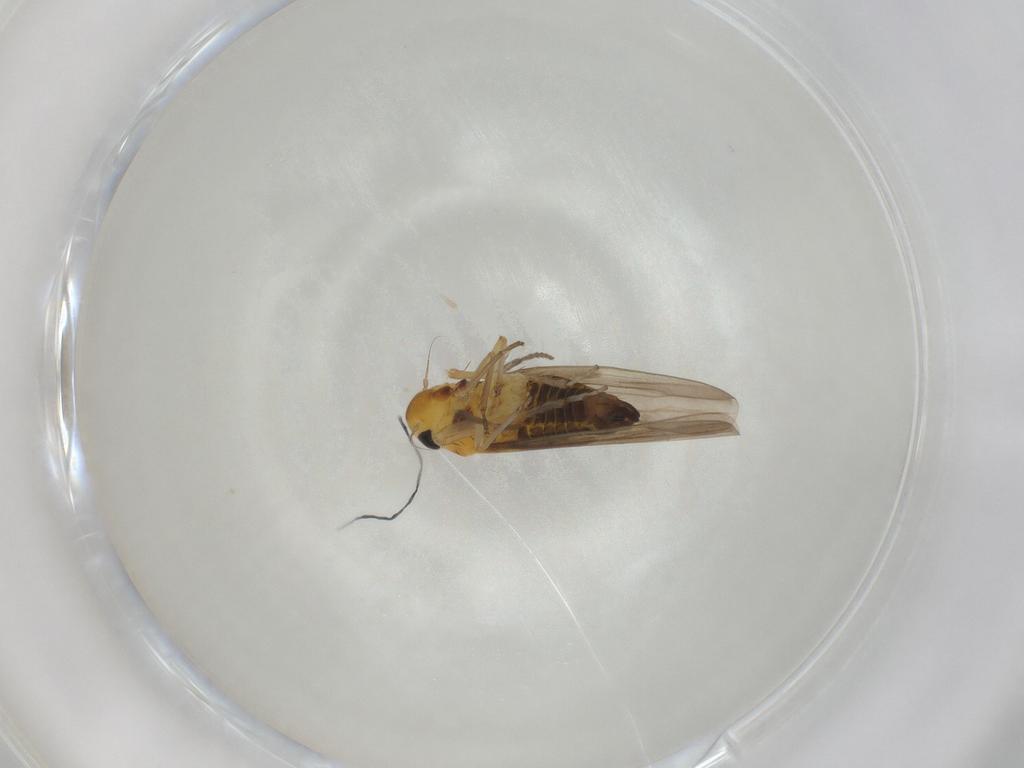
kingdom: Animalia
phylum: Arthropoda
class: Insecta
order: Hemiptera
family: Cicadellidae
